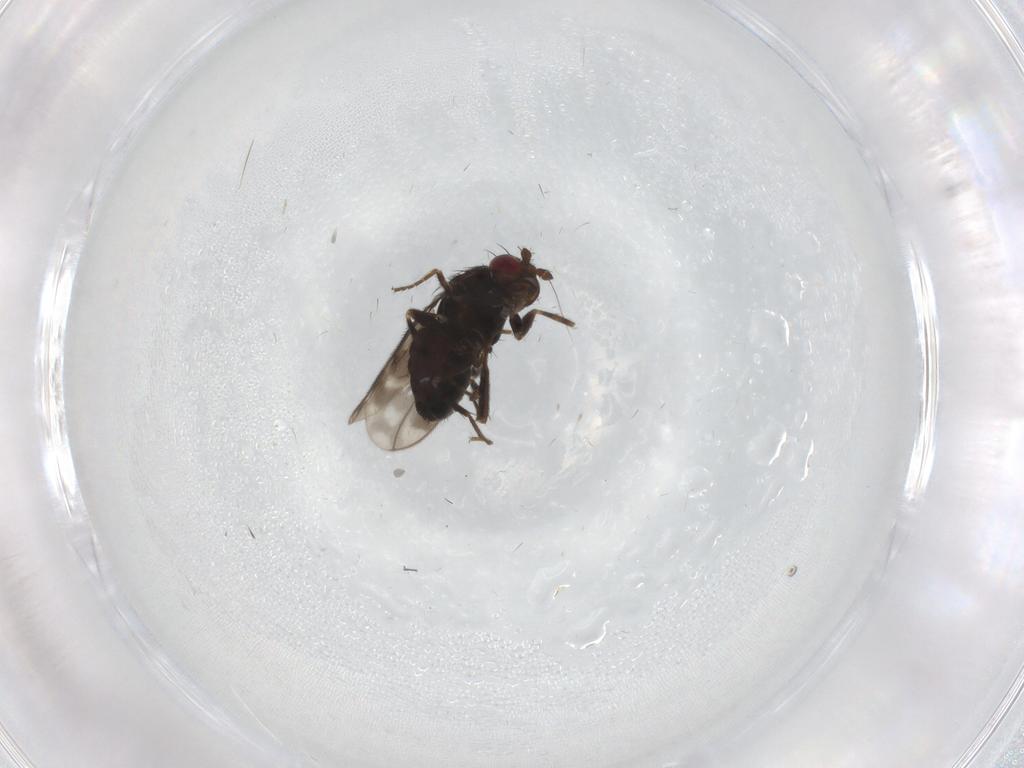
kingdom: Animalia
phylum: Arthropoda
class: Insecta
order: Diptera
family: Sphaeroceridae
